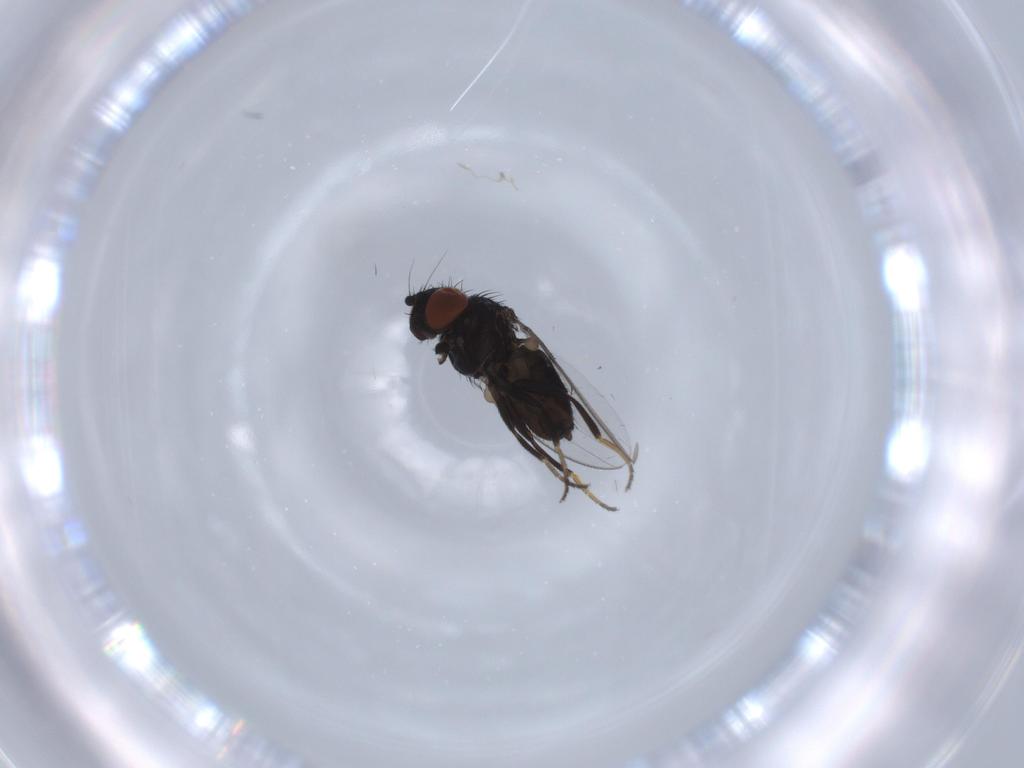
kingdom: Animalia
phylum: Arthropoda
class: Insecta
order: Diptera
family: Milichiidae
